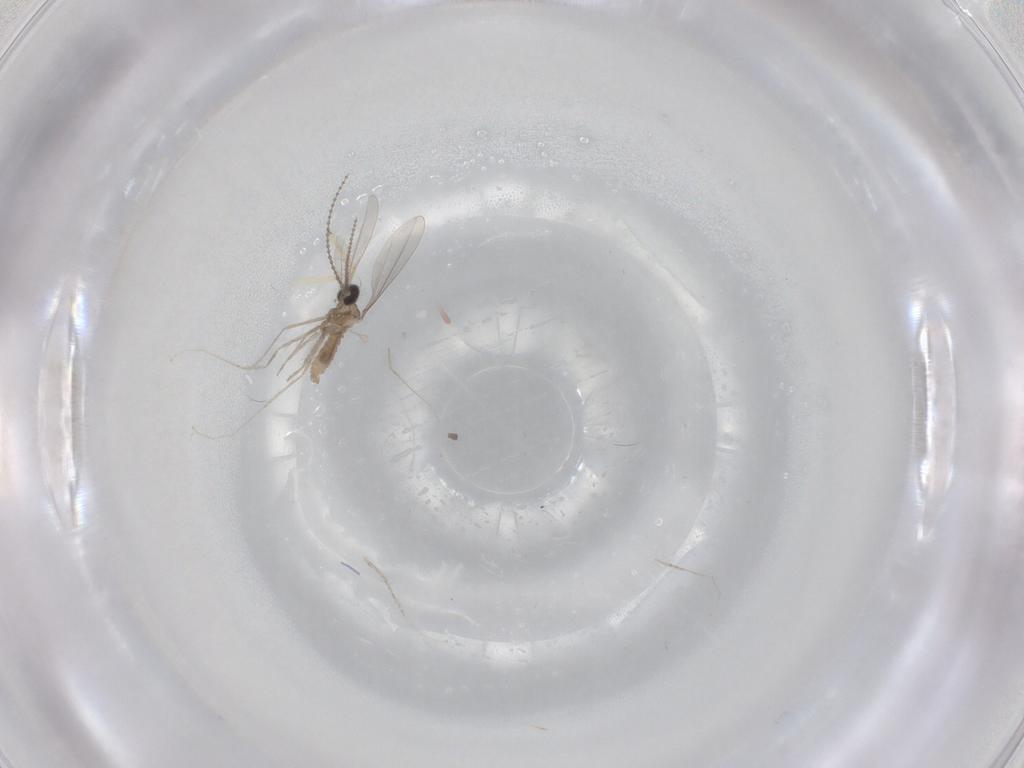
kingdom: Animalia
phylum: Arthropoda
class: Insecta
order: Diptera
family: Chironomidae
